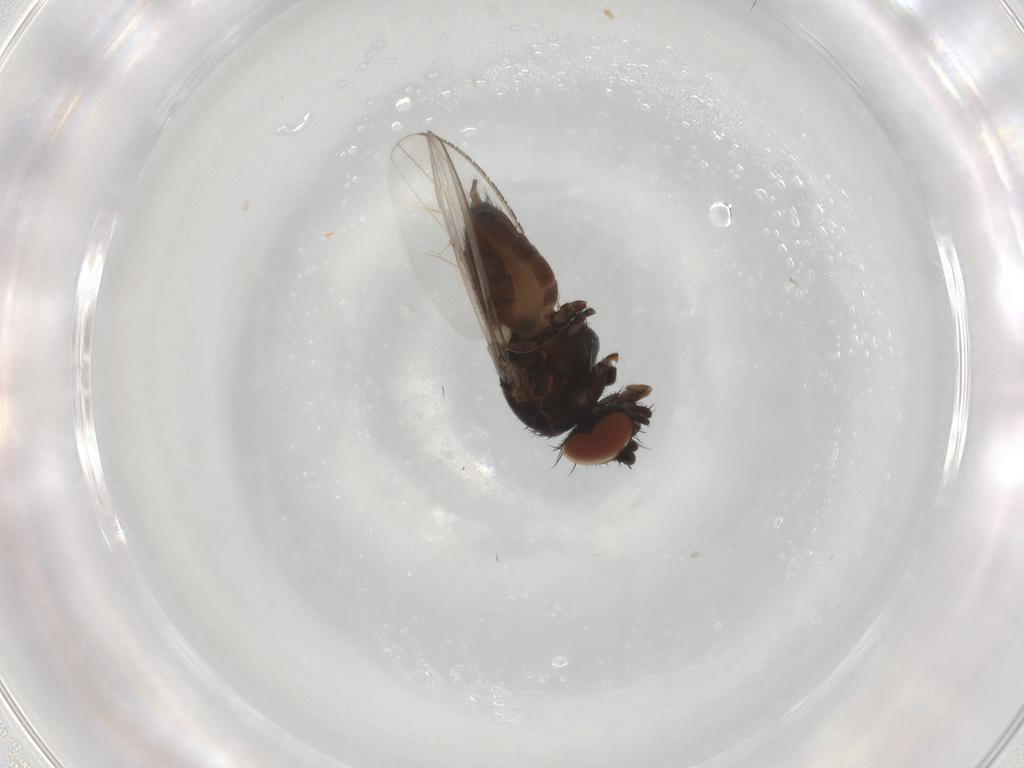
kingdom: Animalia
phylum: Arthropoda
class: Insecta
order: Diptera
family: Milichiidae
